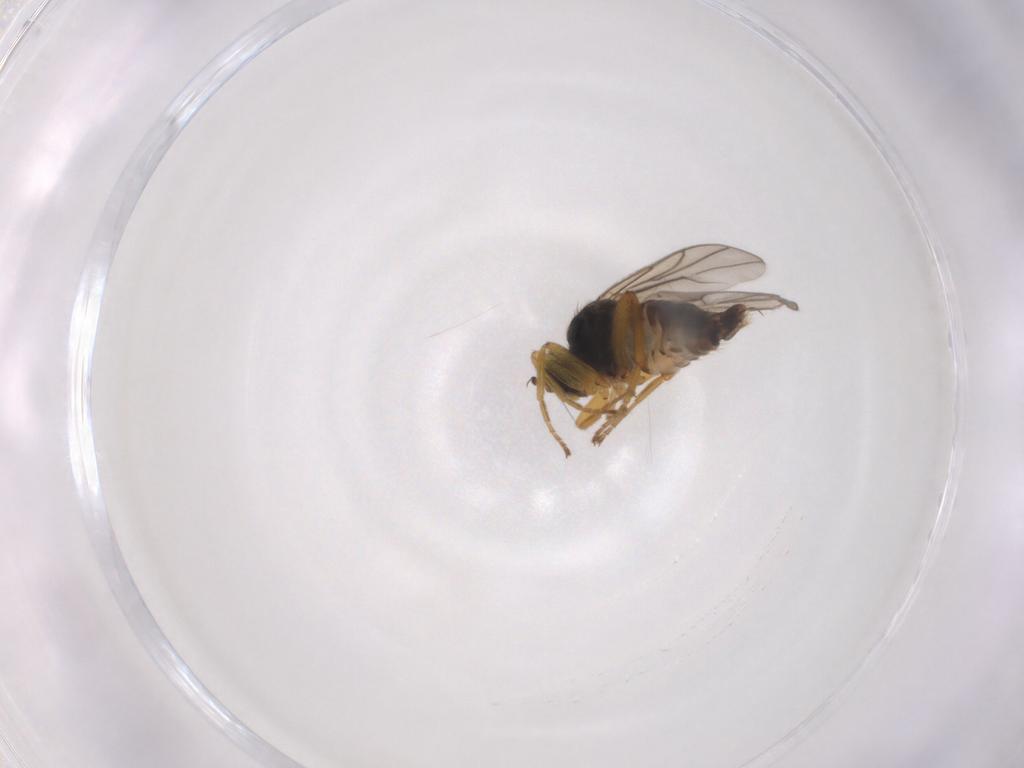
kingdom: Animalia
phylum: Arthropoda
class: Insecta
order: Diptera
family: Hybotidae
